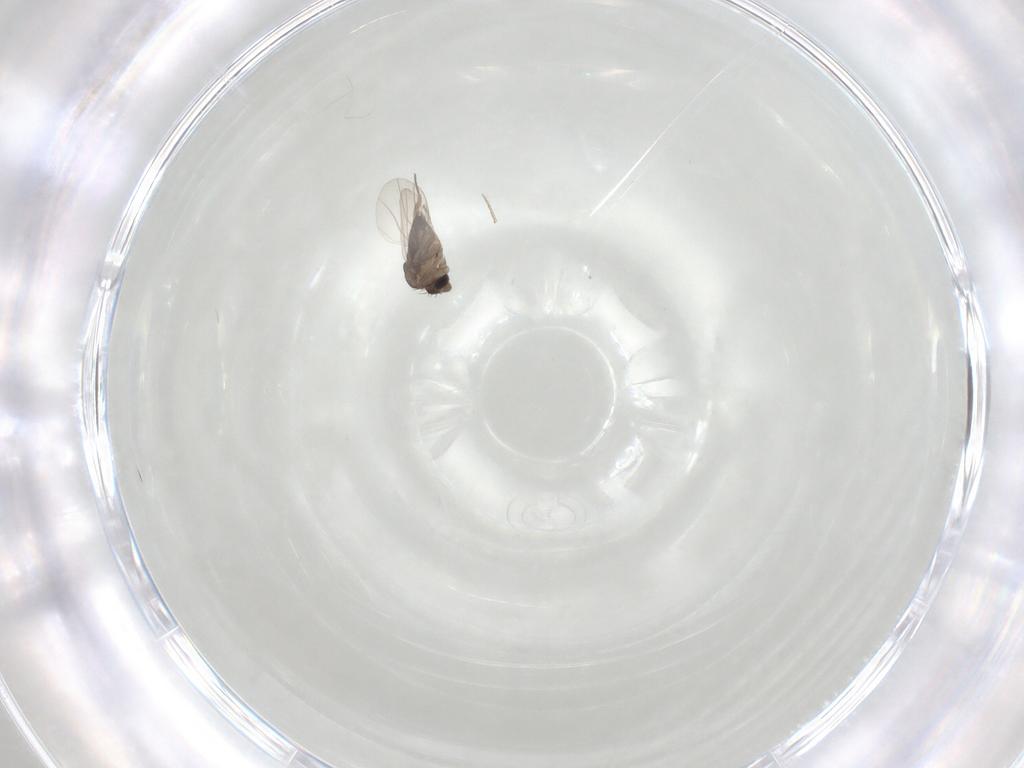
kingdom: Animalia
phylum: Arthropoda
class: Insecta
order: Diptera
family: Phoridae
